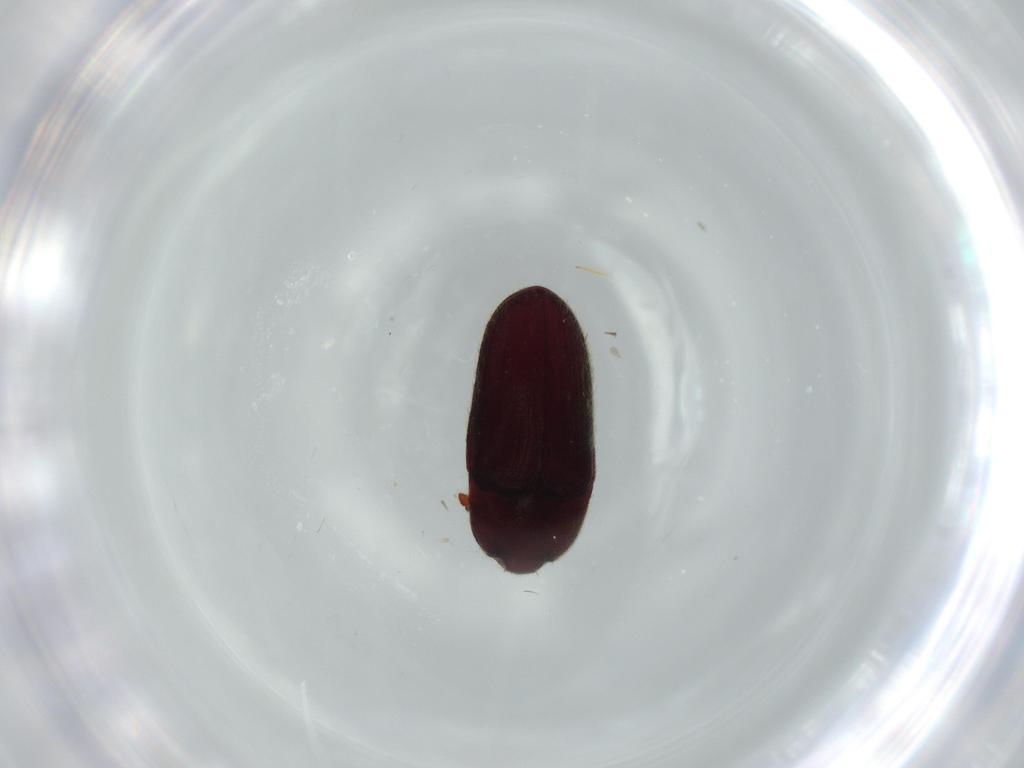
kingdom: Animalia
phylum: Arthropoda
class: Insecta
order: Coleoptera
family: Throscidae
